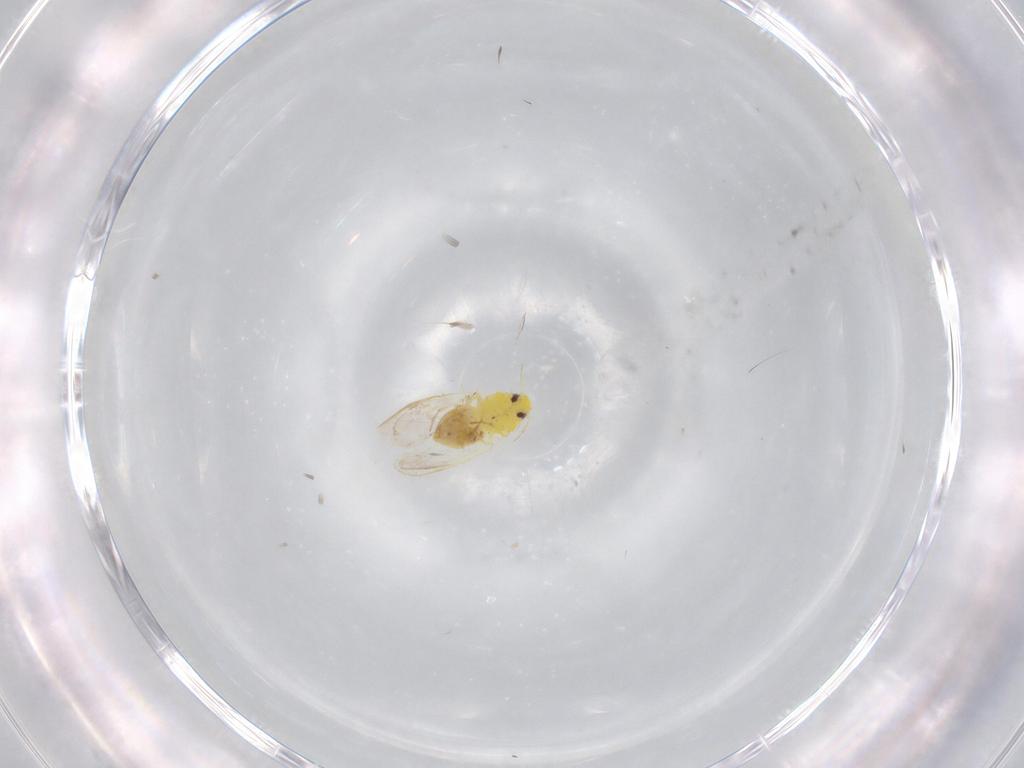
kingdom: Animalia
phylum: Arthropoda
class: Insecta
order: Hemiptera
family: Aleyrodidae
